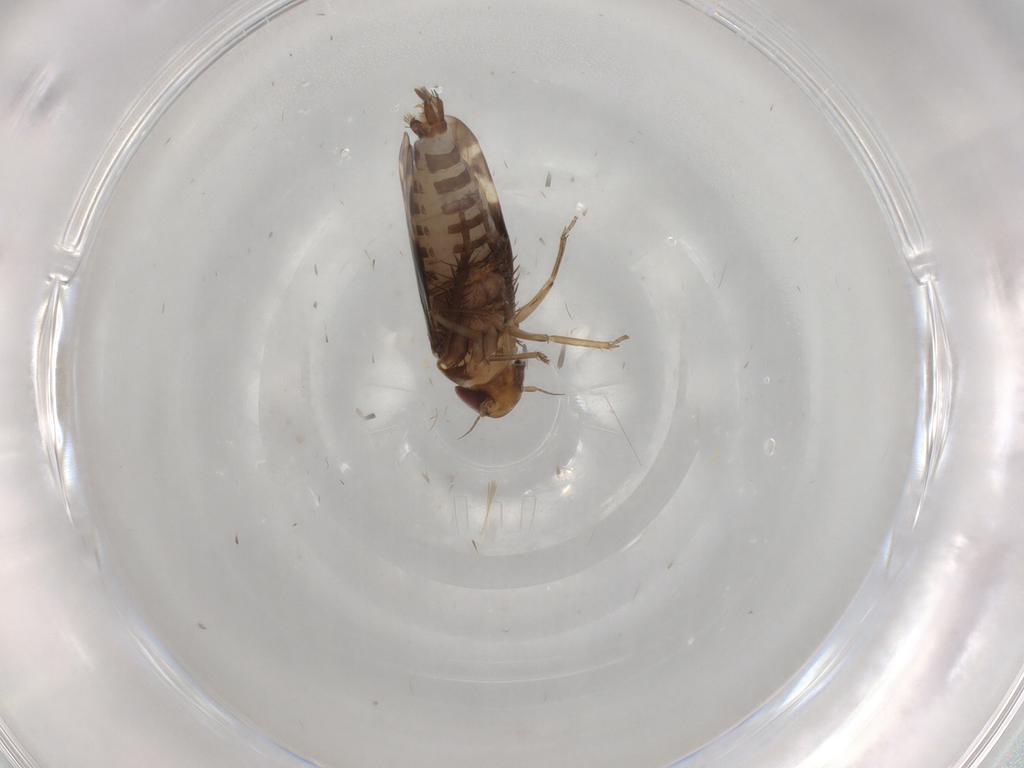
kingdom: Animalia
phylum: Arthropoda
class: Insecta
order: Hemiptera
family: Cicadellidae
